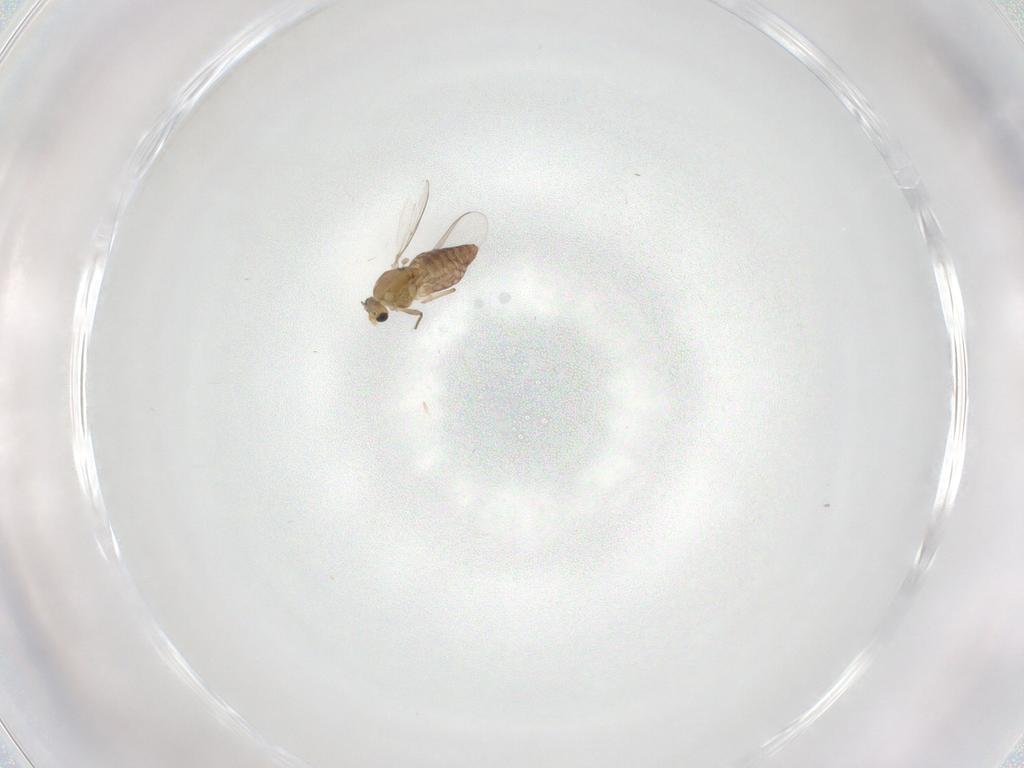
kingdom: Animalia
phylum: Arthropoda
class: Insecta
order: Diptera
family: Chironomidae
